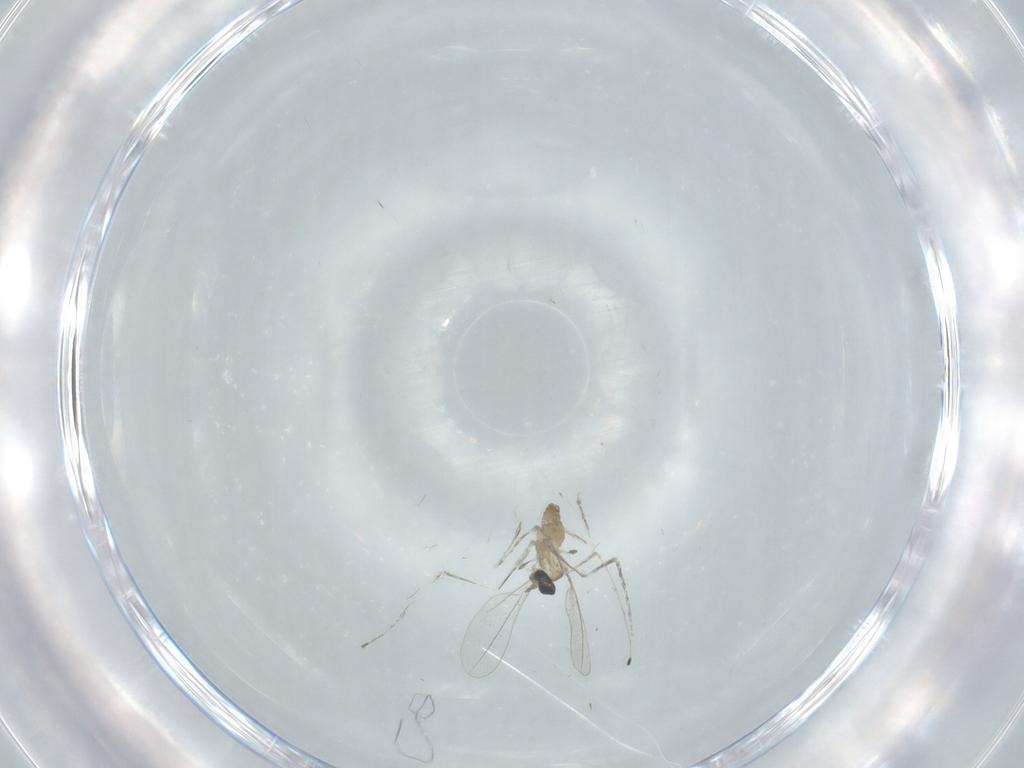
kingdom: Animalia
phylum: Arthropoda
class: Insecta
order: Diptera
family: Cecidomyiidae
